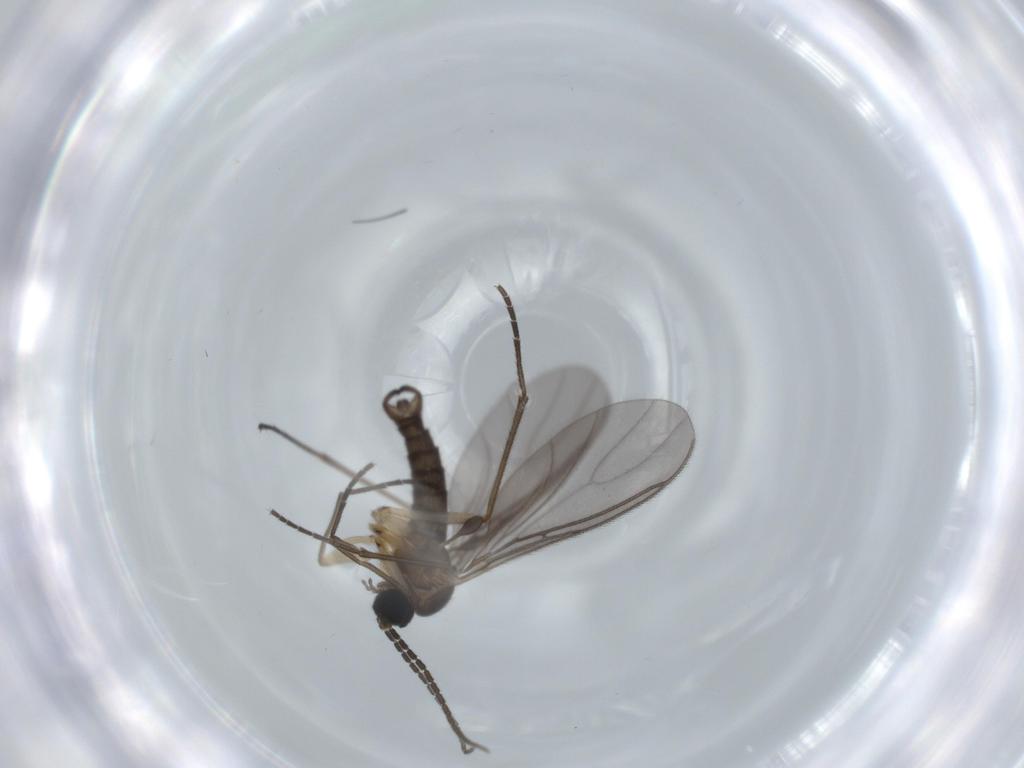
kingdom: Animalia
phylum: Arthropoda
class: Insecta
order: Diptera
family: Sciaridae
